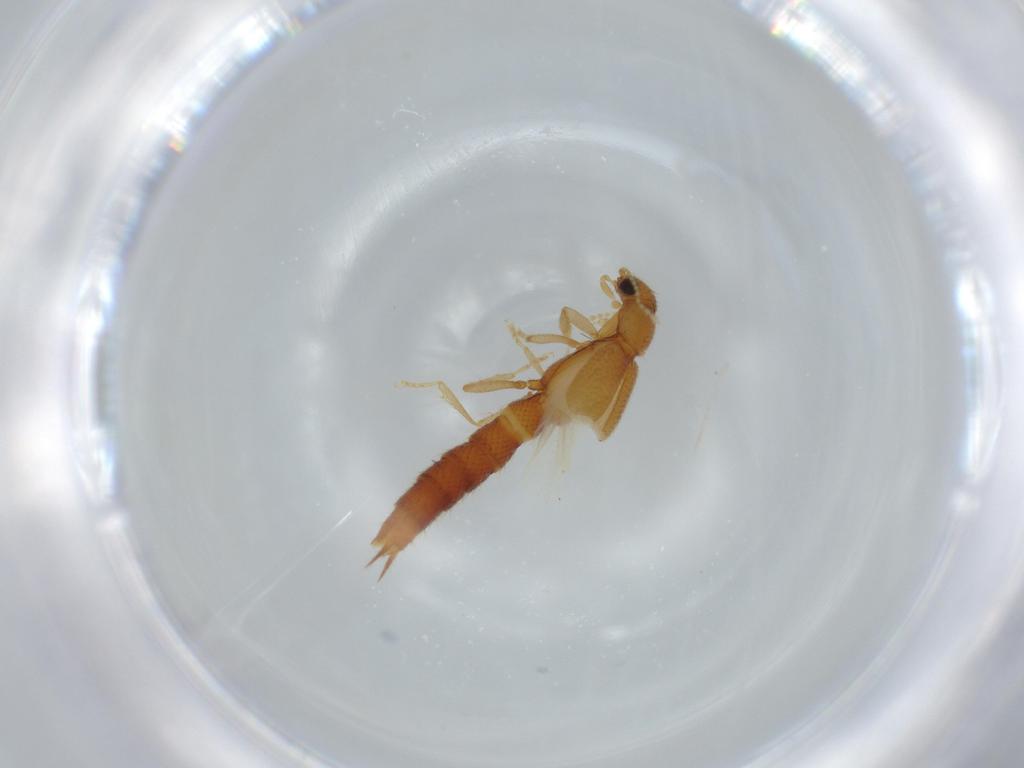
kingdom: Animalia
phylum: Arthropoda
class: Insecta
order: Coleoptera
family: Staphylinidae
